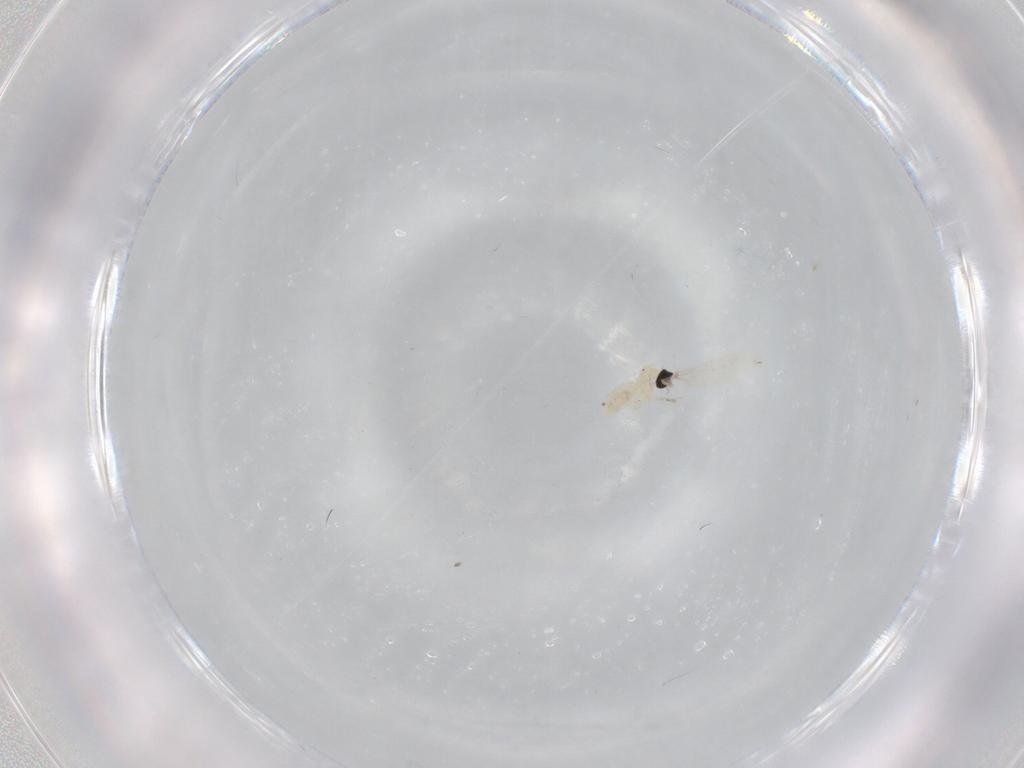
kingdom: Animalia
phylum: Arthropoda
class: Insecta
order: Diptera
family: Cecidomyiidae
